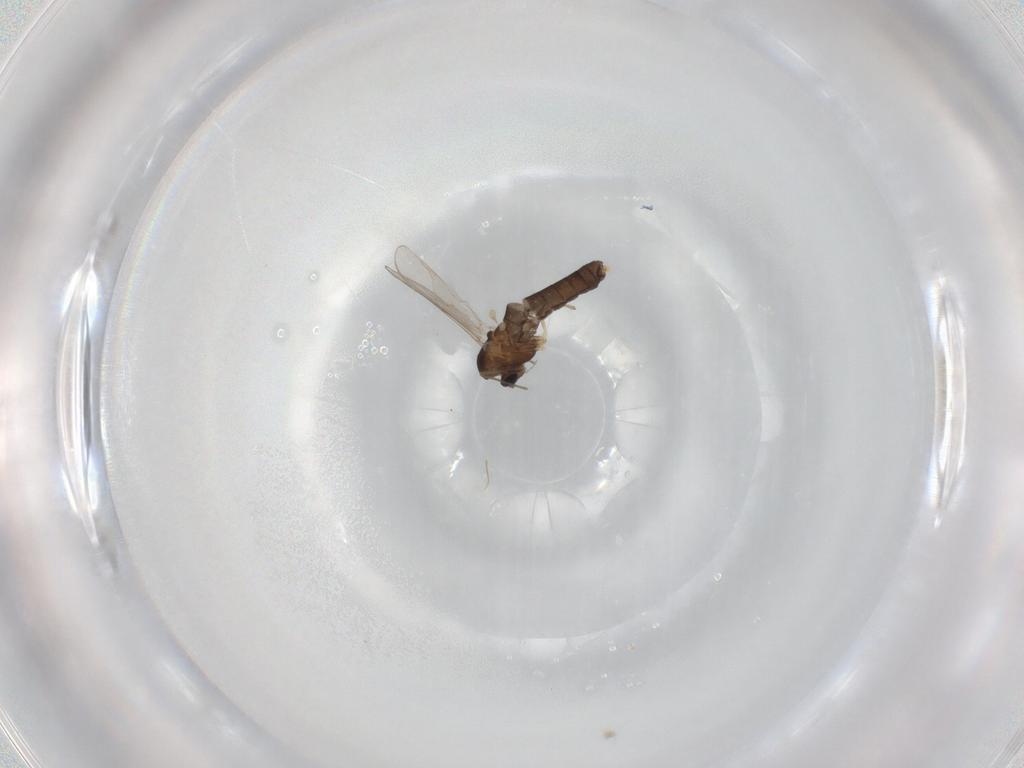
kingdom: Animalia
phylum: Arthropoda
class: Insecta
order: Diptera
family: Chironomidae
